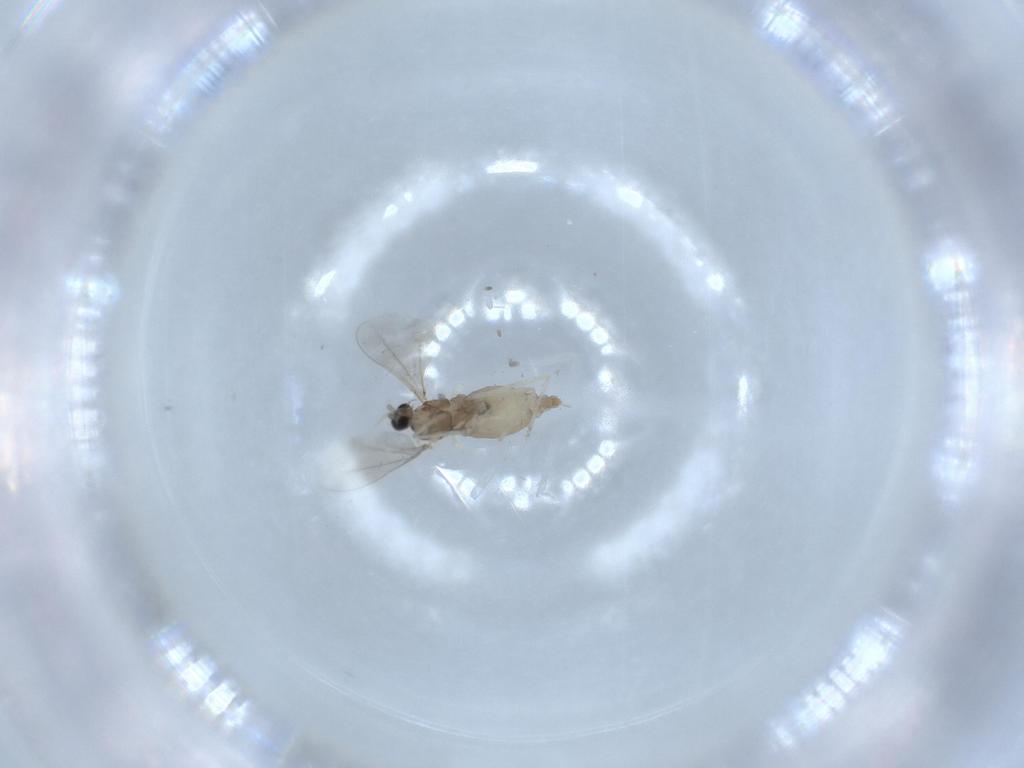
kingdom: Animalia
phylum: Arthropoda
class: Insecta
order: Diptera
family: Cecidomyiidae
